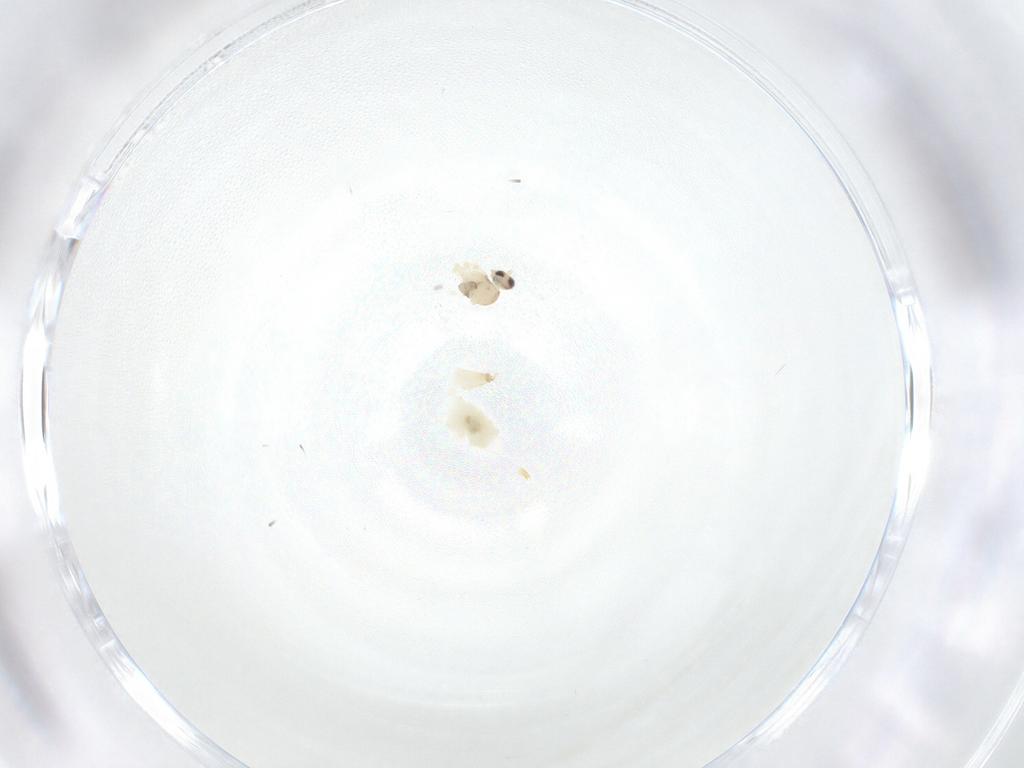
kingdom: Animalia
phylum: Arthropoda
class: Insecta
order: Diptera
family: Cecidomyiidae
